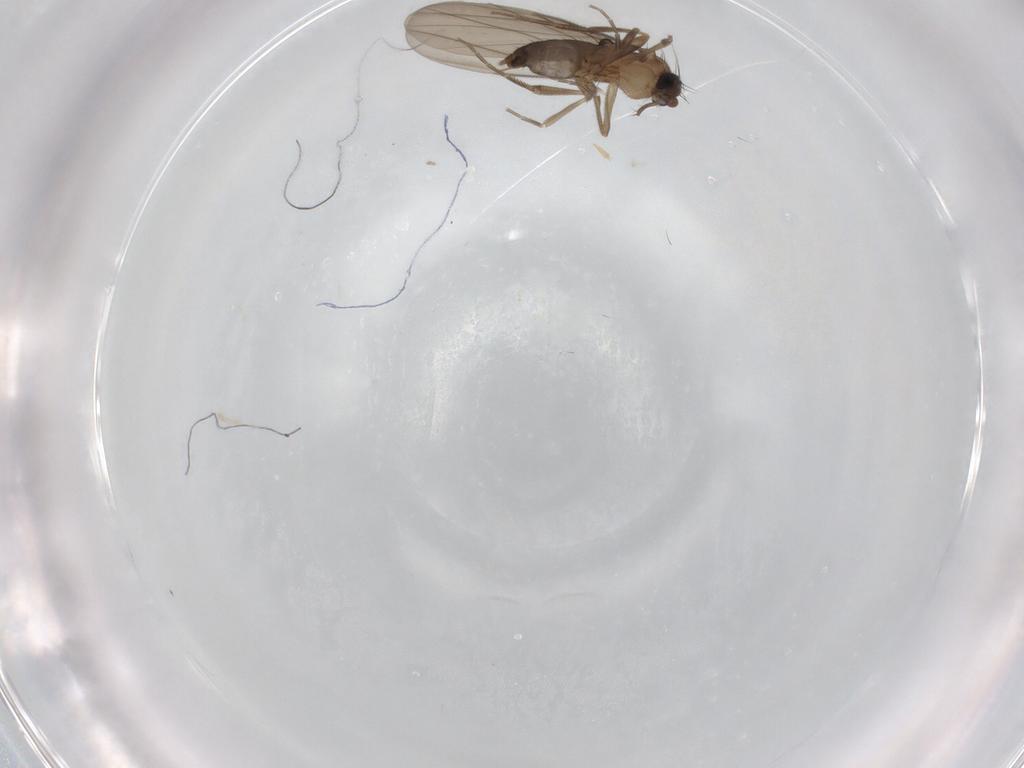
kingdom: Animalia
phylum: Arthropoda
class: Insecta
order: Diptera
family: Phoridae
